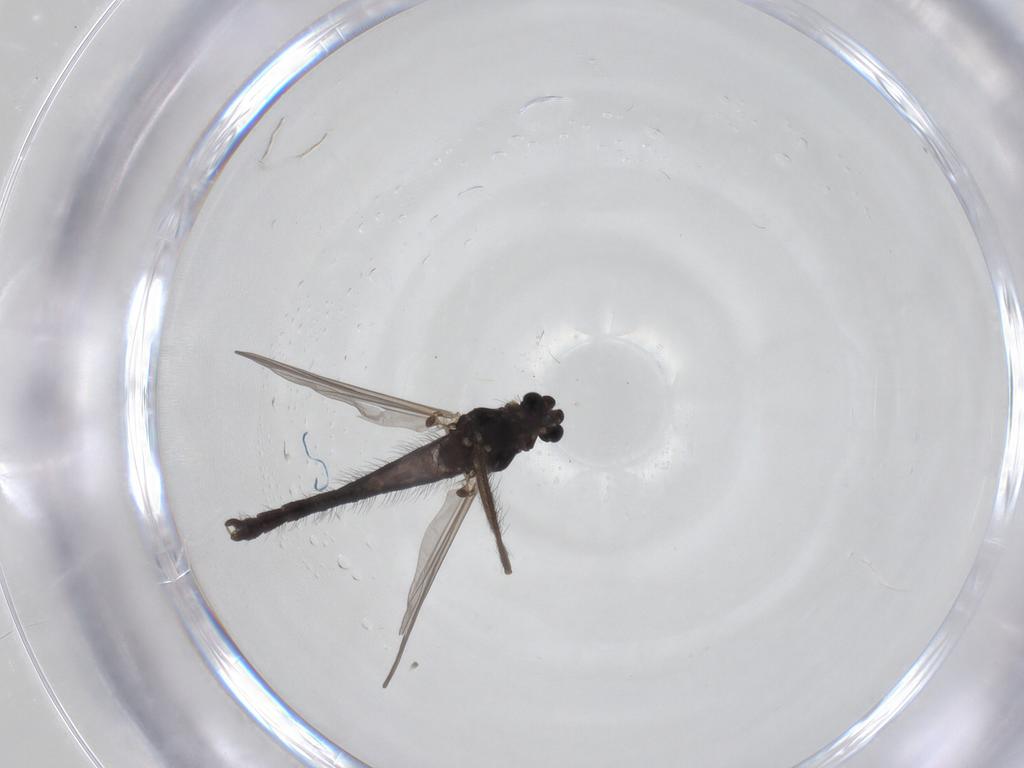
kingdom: Animalia
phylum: Arthropoda
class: Insecta
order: Diptera
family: Chironomidae
